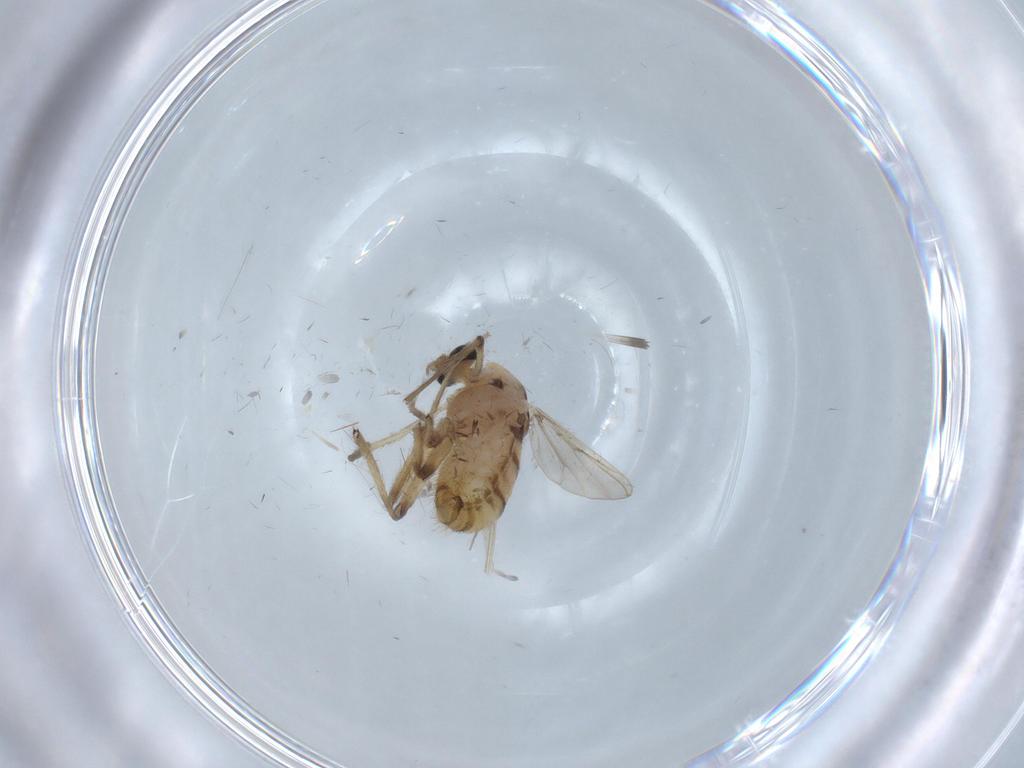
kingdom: Animalia
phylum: Arthropoda
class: Insecta
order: Diptera
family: Chironomidae
